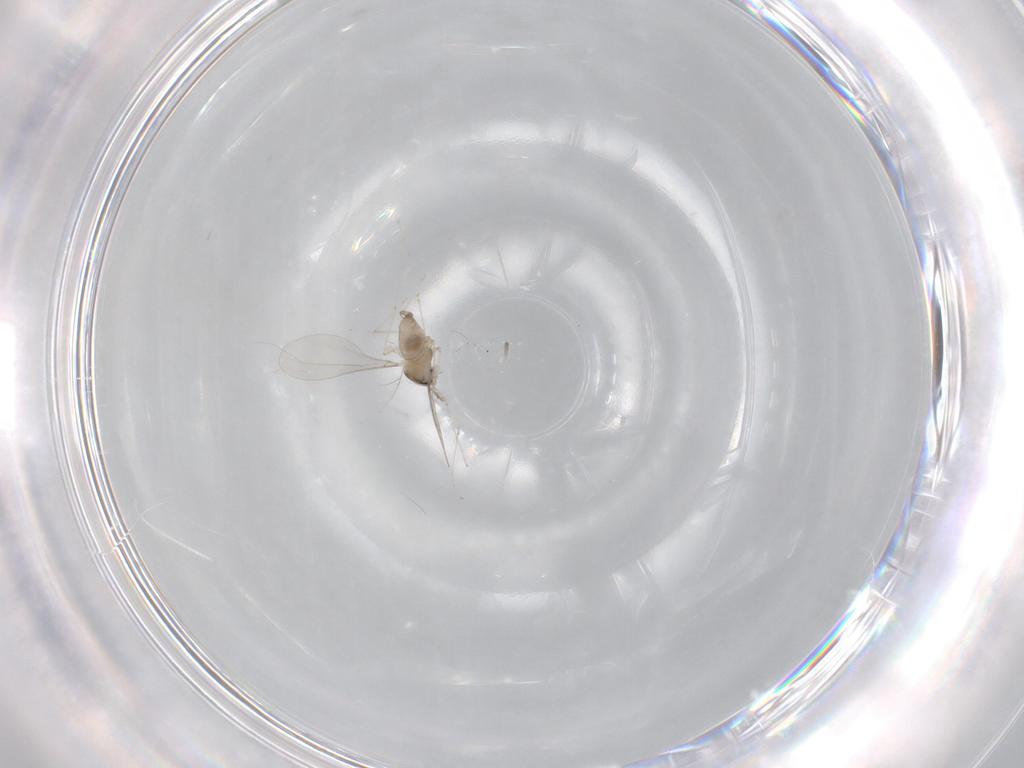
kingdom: Animalia
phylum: Arthropoda
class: Insecta
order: Diptera
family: Cecidomyiidae
